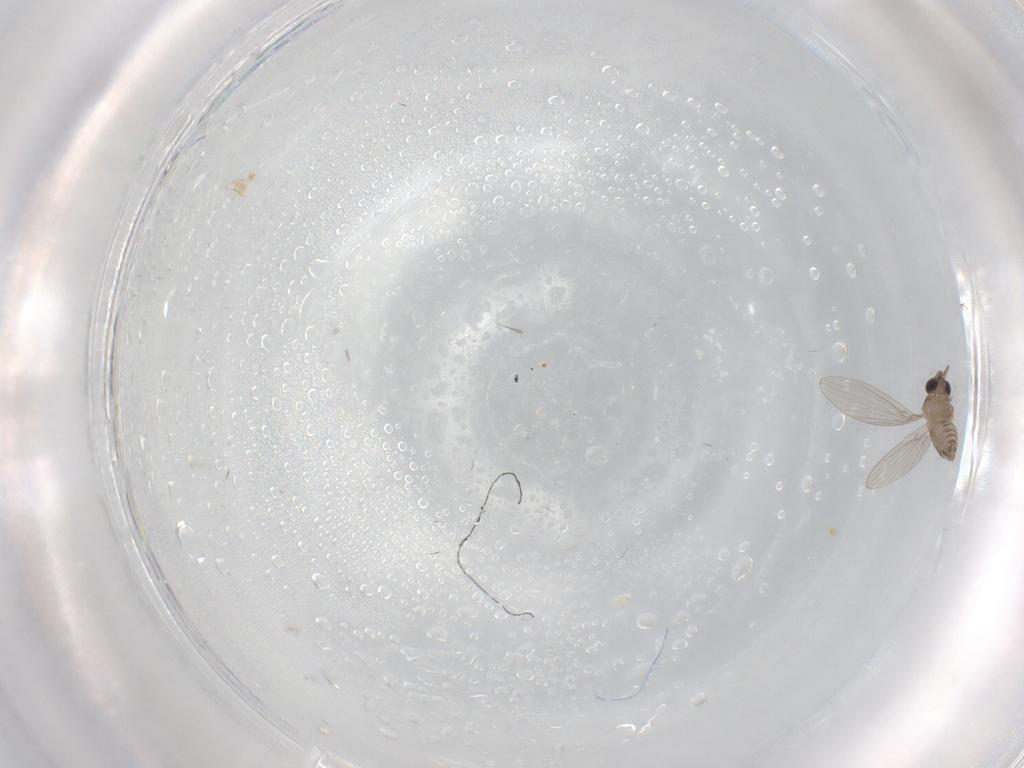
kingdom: Animalia
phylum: Arthropoda
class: Insecta
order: Diptera
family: Psychodidae
